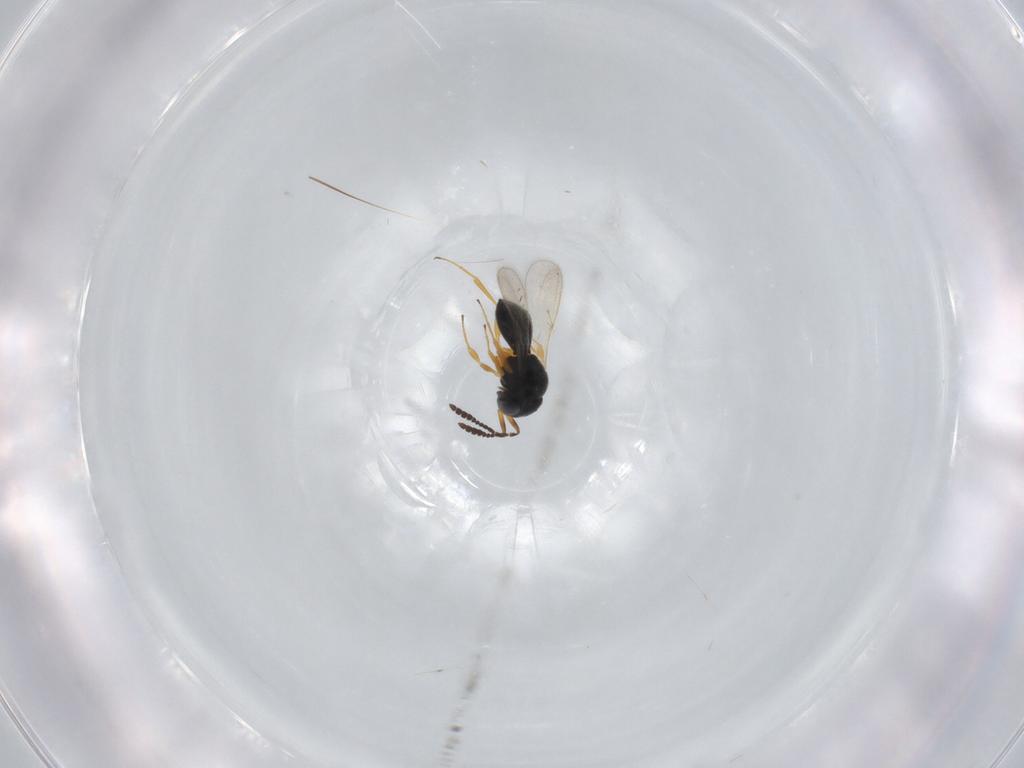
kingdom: Animalia
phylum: Arthropoda
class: Insecta
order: Hymenoptera
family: Scelionidae
